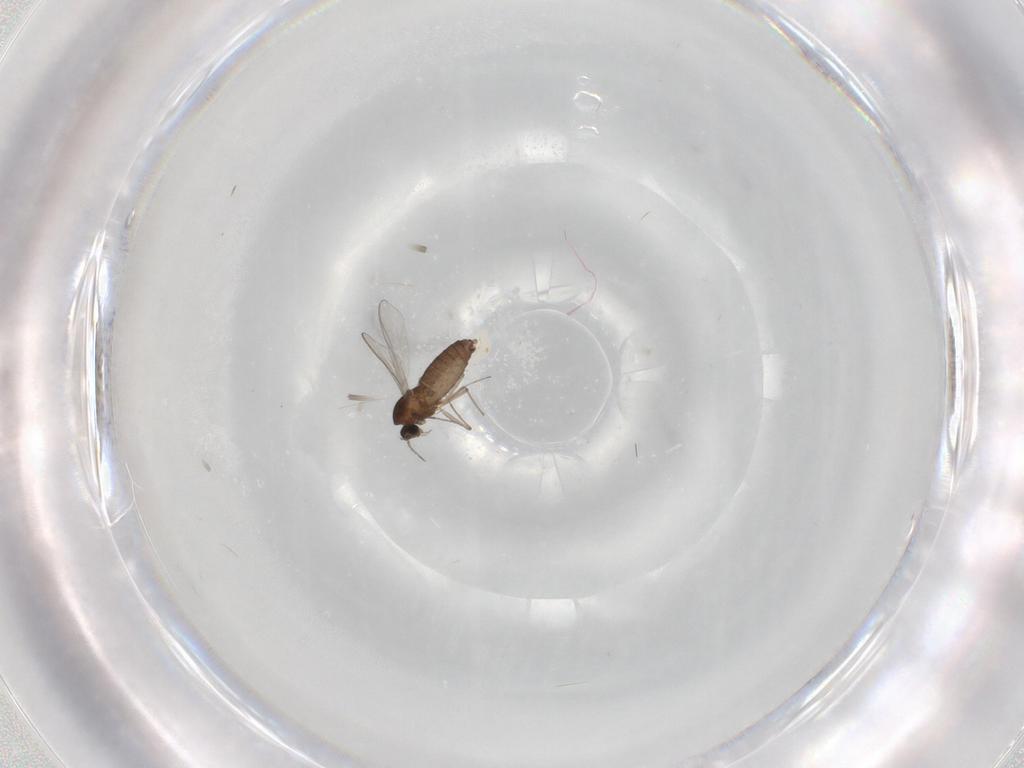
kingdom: Animalia
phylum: Arthropoda
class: Insecta
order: Diptera
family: Chironomidae
